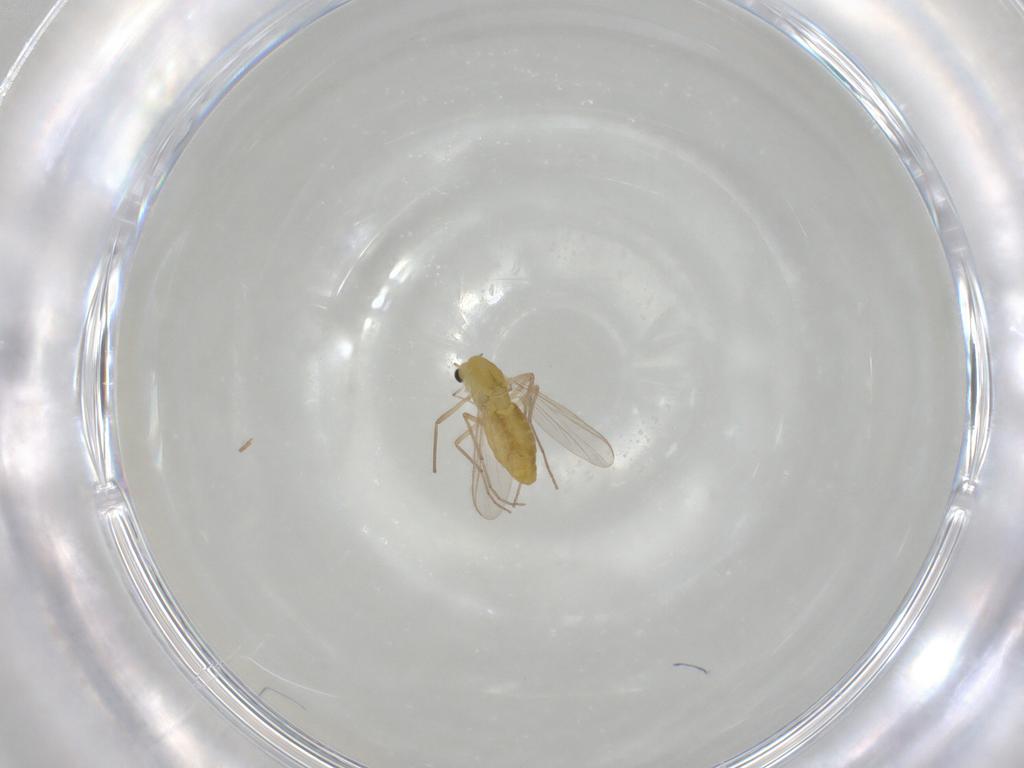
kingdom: Animalia
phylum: Arthropoda
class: Insecta
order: Diptera
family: Chironomidae
